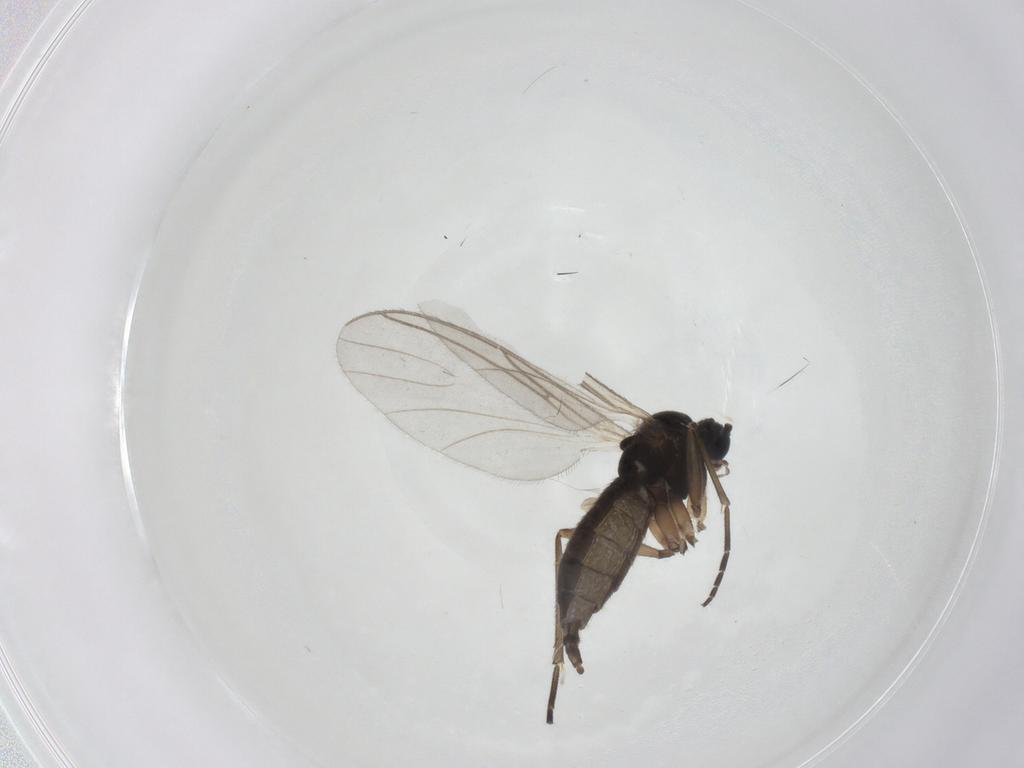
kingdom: Animalia
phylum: Arthropoda
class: Insecta
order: Diptera
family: Sciaridae
